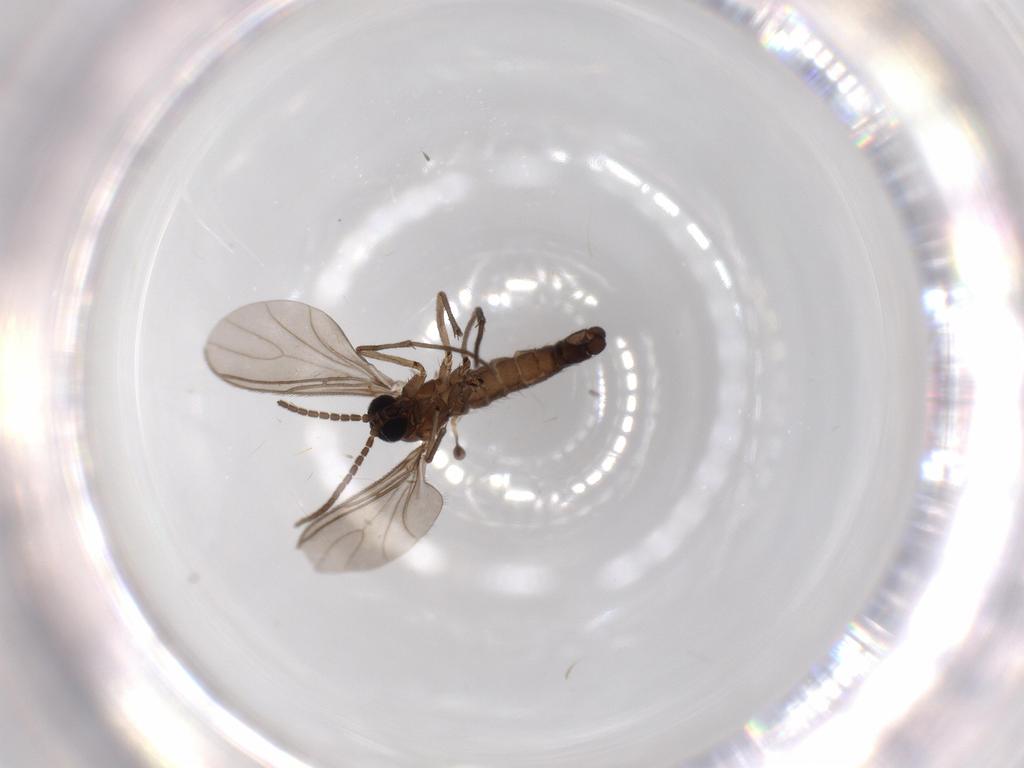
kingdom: Animalia
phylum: Arthropoda
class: Insecta
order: Diptera
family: Sciaridae
